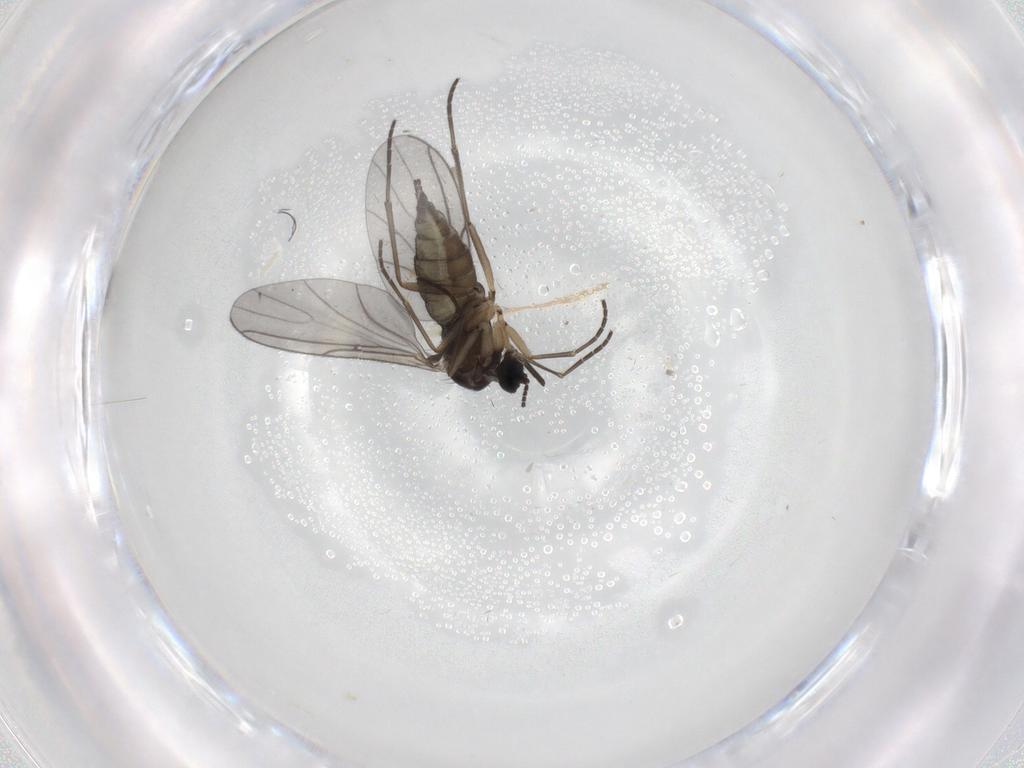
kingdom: Animalia
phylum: Arthropoda
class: Insecta
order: Diptera
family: Sciaridae
